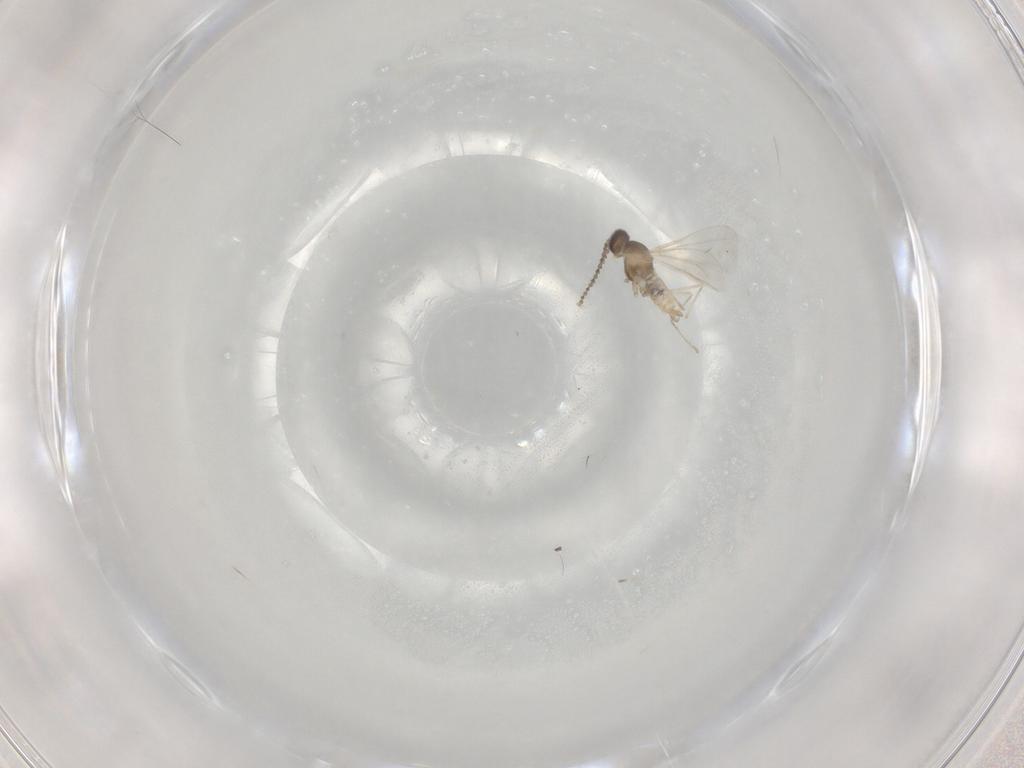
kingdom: Animalia
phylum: Arthropoda
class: Insecta
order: Diptera
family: Cecidomyiidae
